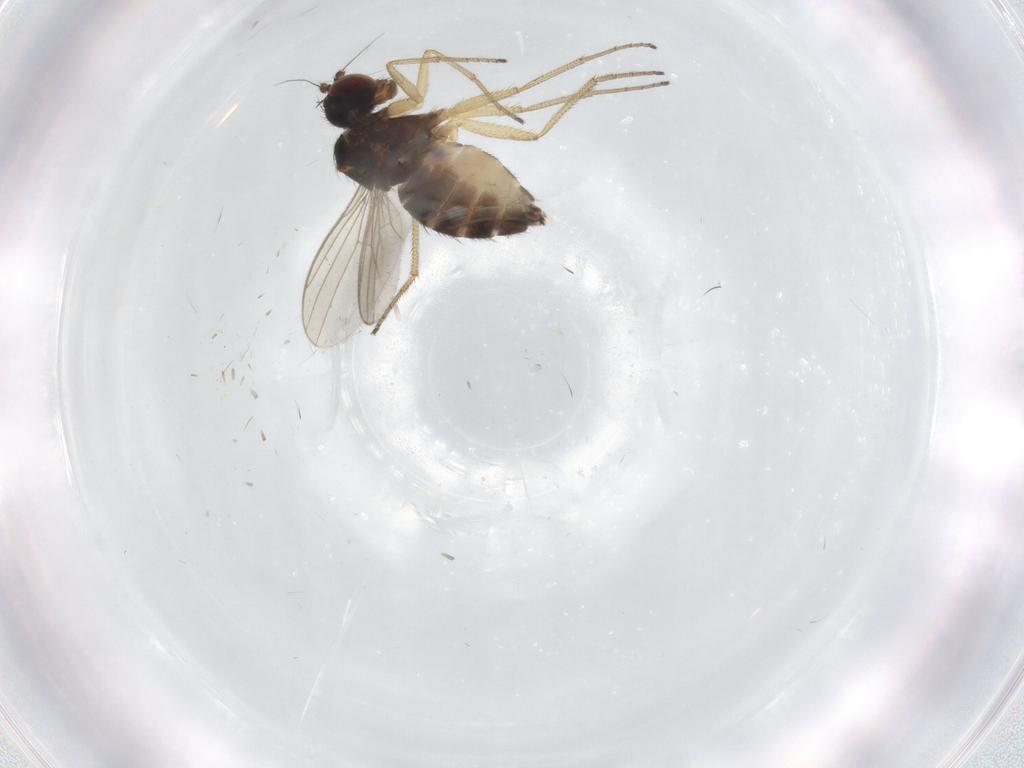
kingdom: Animalia
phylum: Arthropoda
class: Insecta
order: Diptera
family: Dolichopodidae
